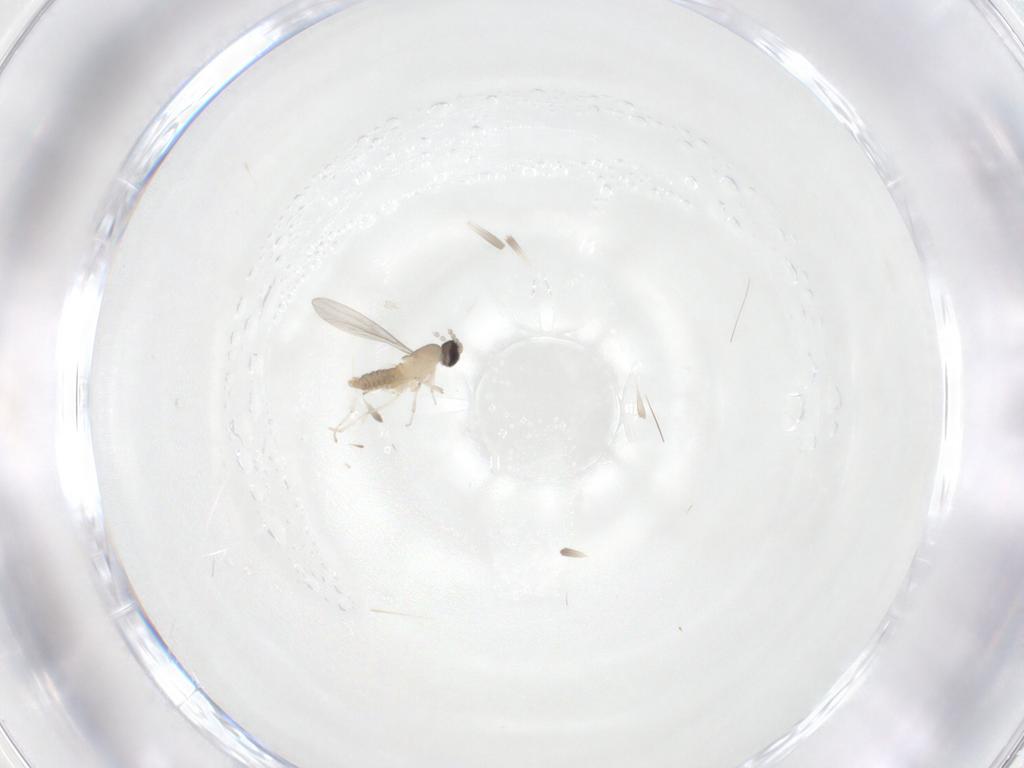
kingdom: Animalia
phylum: Arthropoda
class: Insecta
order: Diptera
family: Cecidomyiidae
